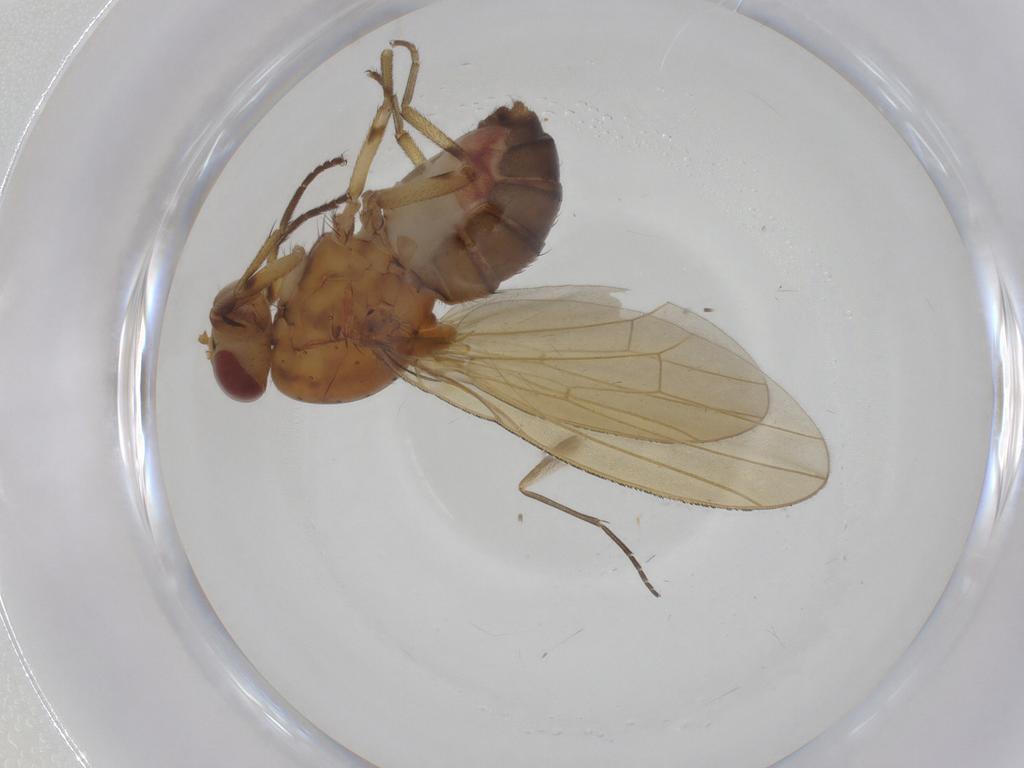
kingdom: Animalia
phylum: Arthropoda
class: Insecta
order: Diptera
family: Sciaridae
